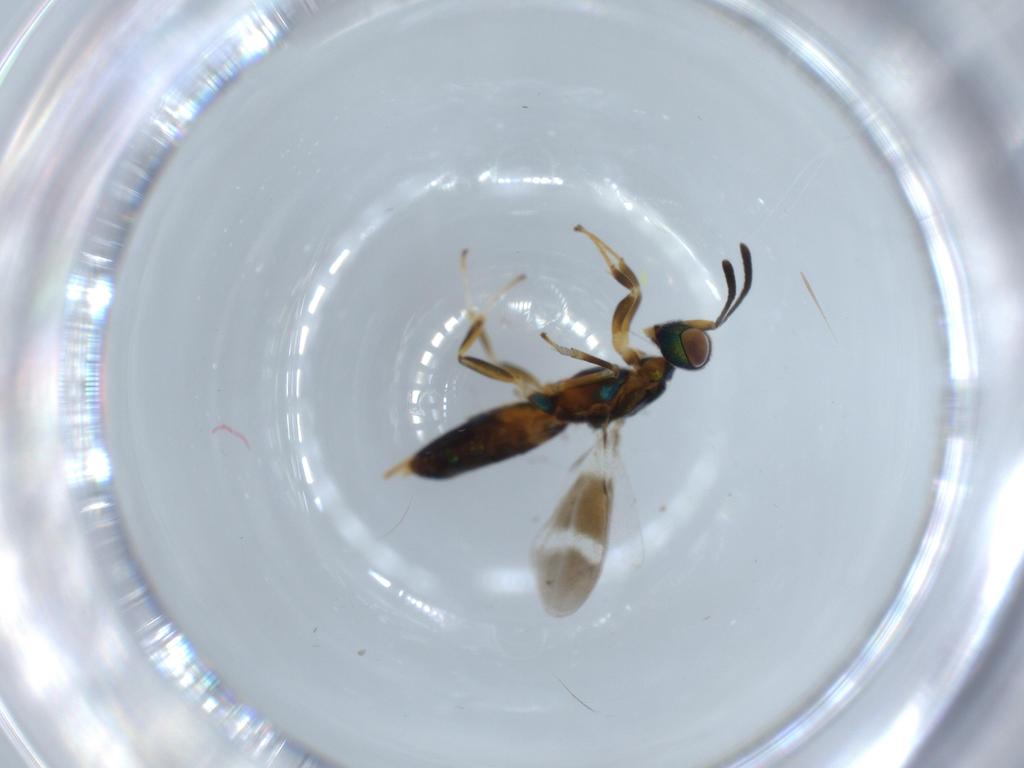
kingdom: Animalia
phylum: Arthropoda
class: Insecta
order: Hymenoptera
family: Eupelmidae
